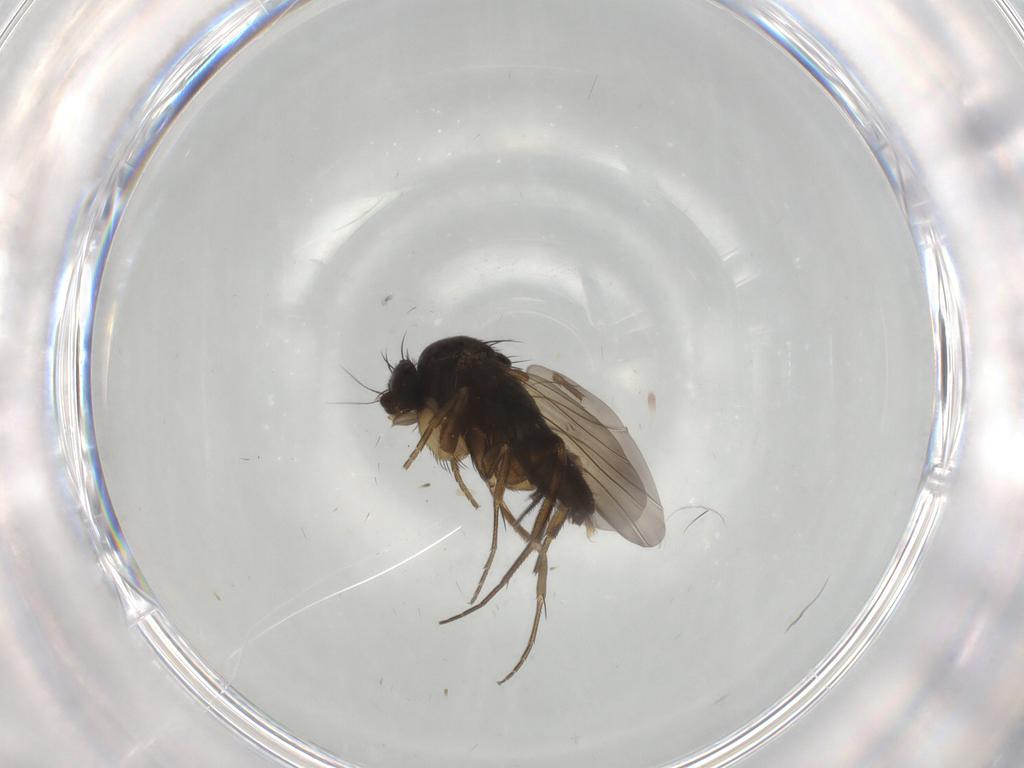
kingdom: Animalia
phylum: Arthropoda
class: Insecta
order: Diptera
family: Phoridae
